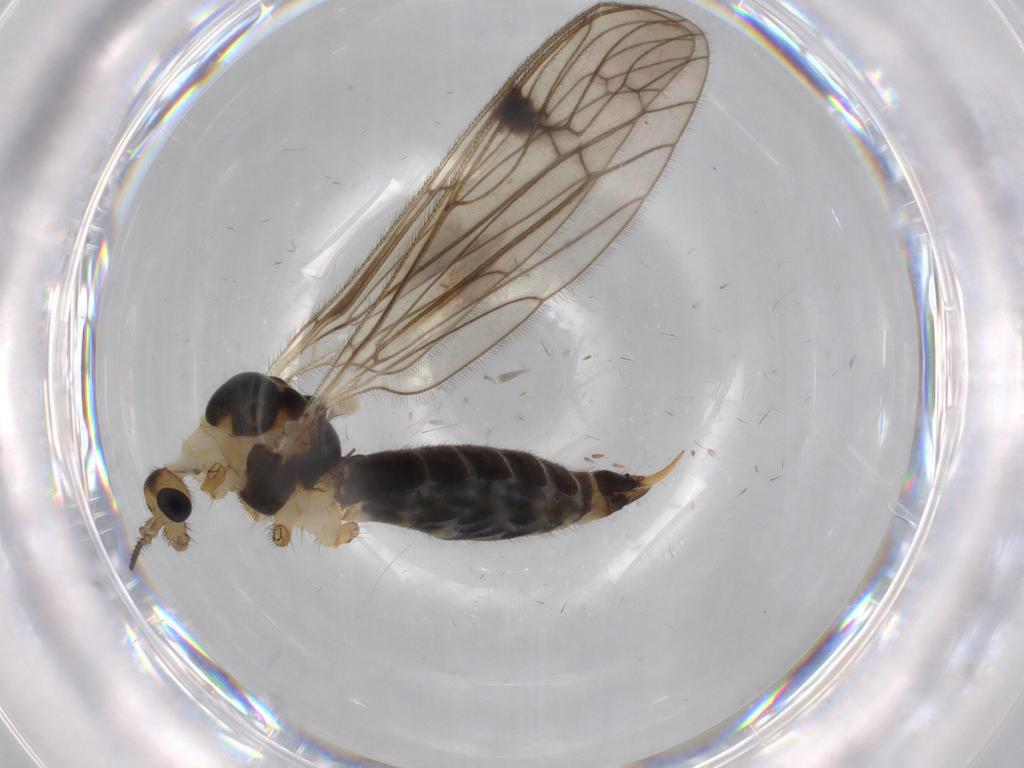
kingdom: Animalia
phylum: Arthropoda
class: Insecta
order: Diptera
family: Limoniidae
